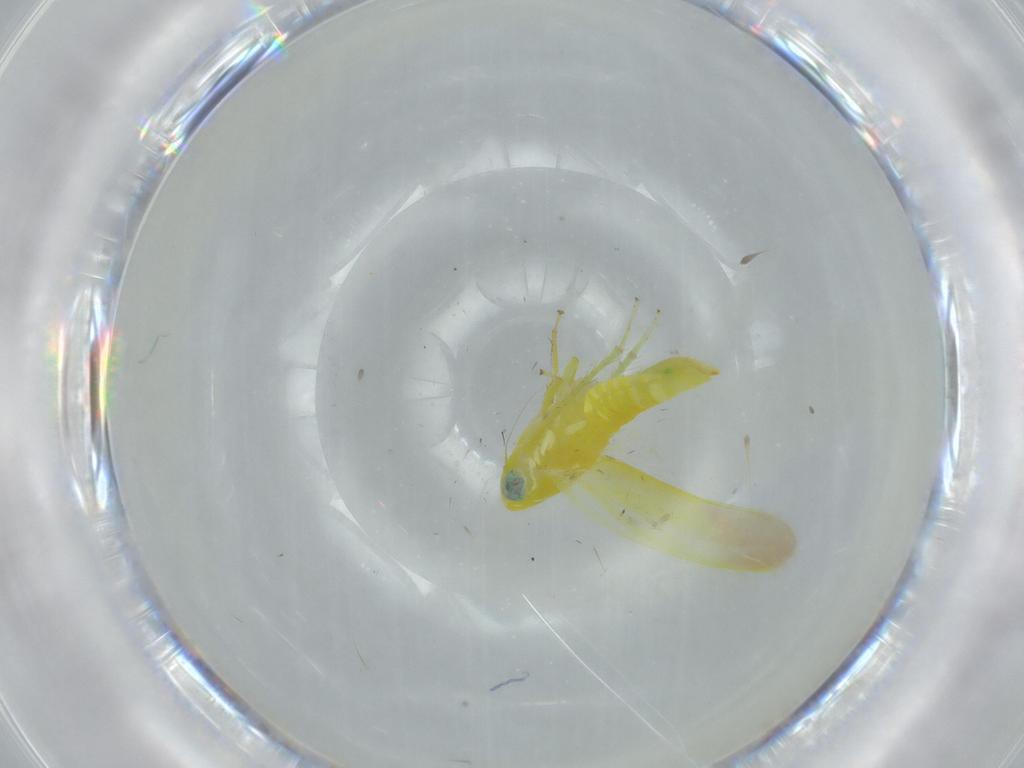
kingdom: Animalia
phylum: Arthropoda
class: Insecta
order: Hemiptera
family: Cicadellidae
